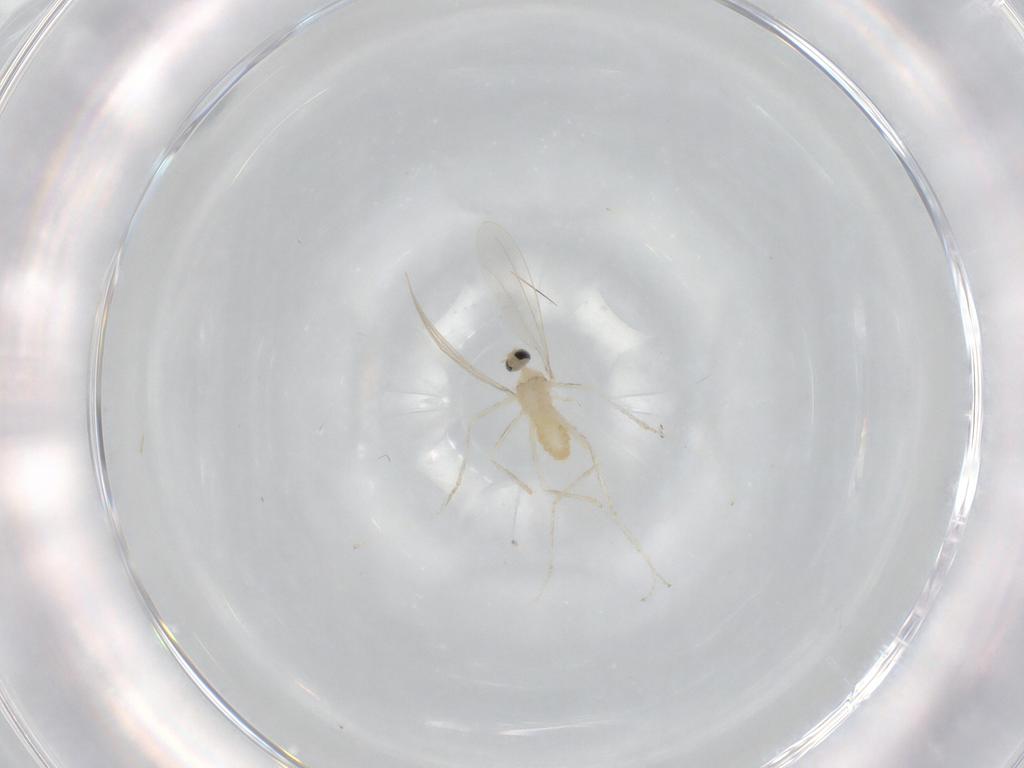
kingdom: Animalia
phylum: Arthropoda
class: Insecta
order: Diptera
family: Cecidomyiidae
